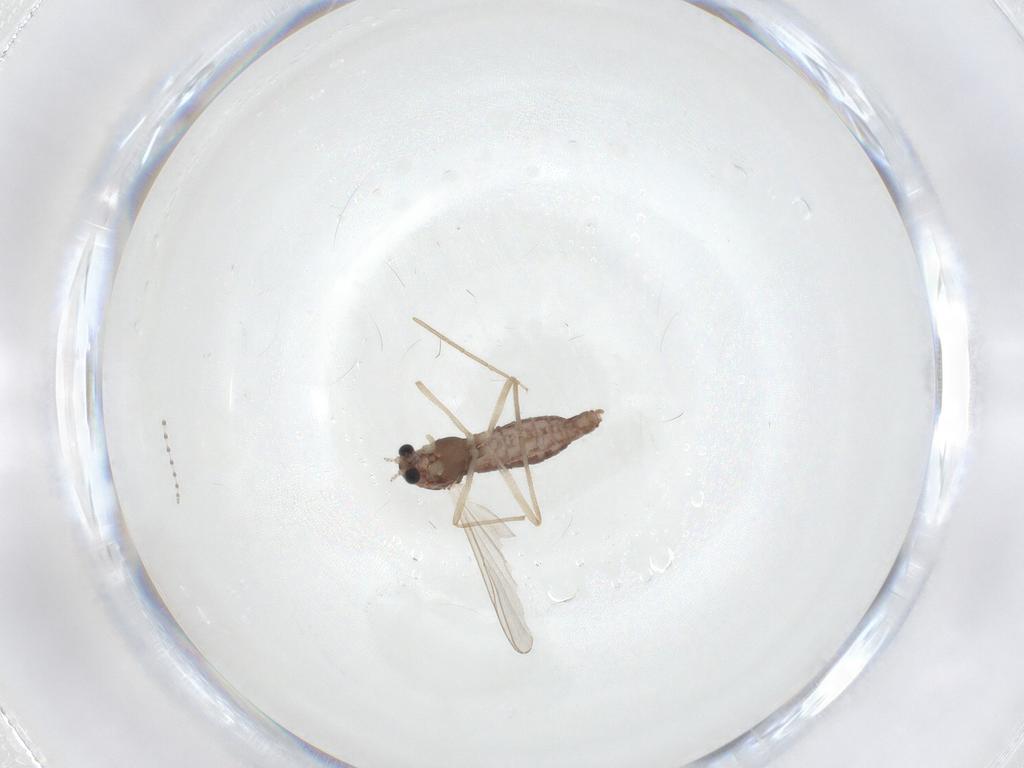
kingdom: Animalia
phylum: Arthropoda
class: Insecta
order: Diptera
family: Chironomidae
